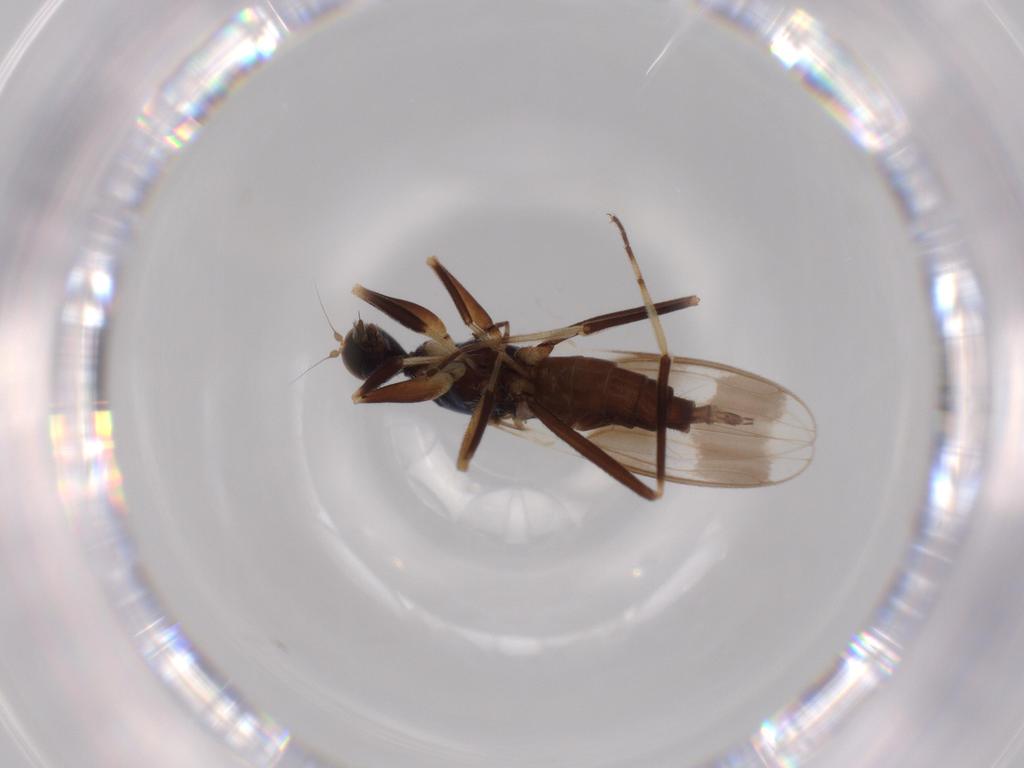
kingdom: Animalia
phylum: Arthropoda
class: Insecta
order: Diptera
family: Hybotidae
